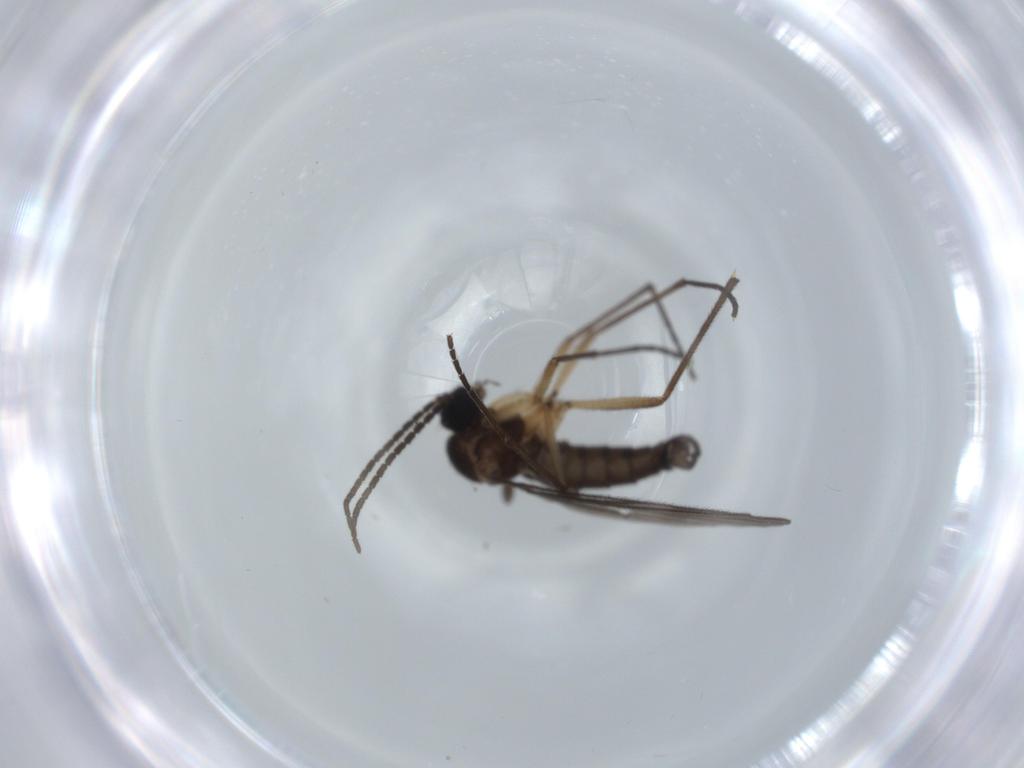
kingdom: Animalia
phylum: Arthropoda
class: Insecta
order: Diptera
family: Sciaridae
